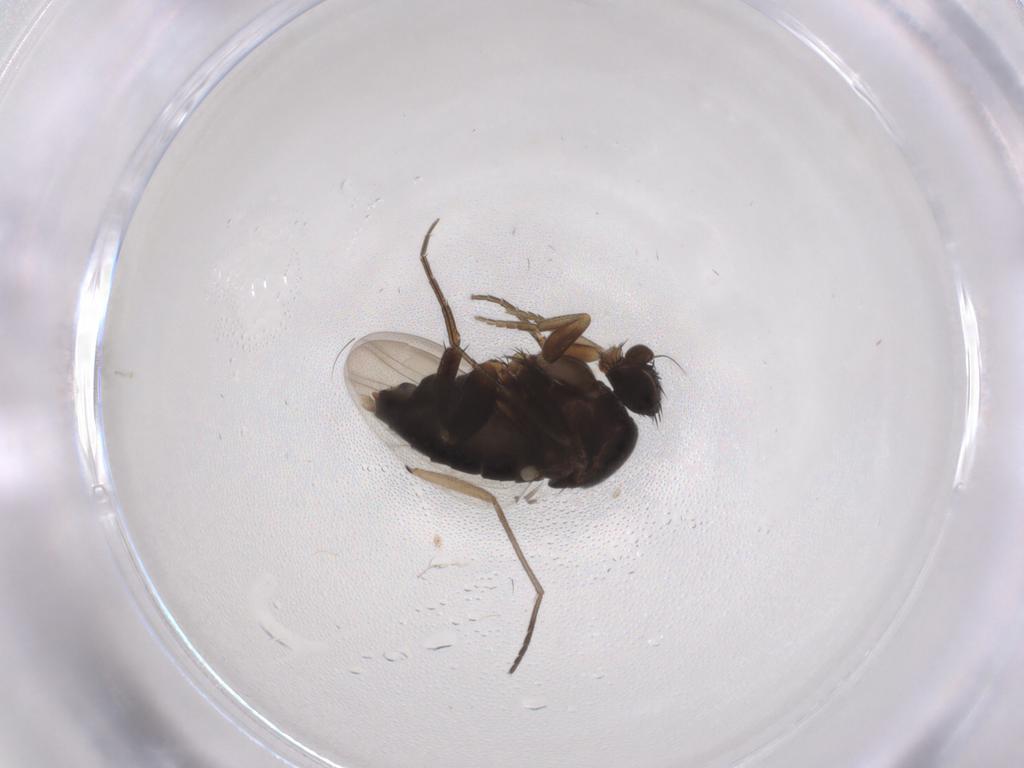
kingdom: Animalia
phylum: Arthropoda
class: Insecta
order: Diptera
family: Phoridae
